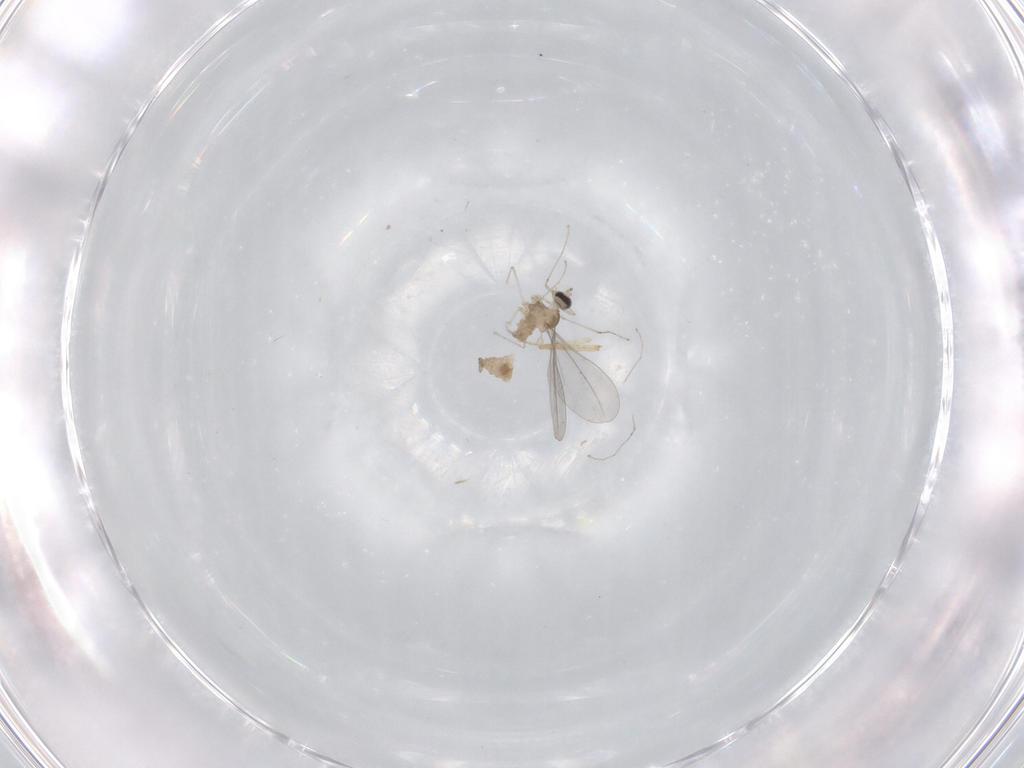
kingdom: Animalia
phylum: Arthropoda
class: Insecta
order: Diptera
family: Cecidomyiidae
